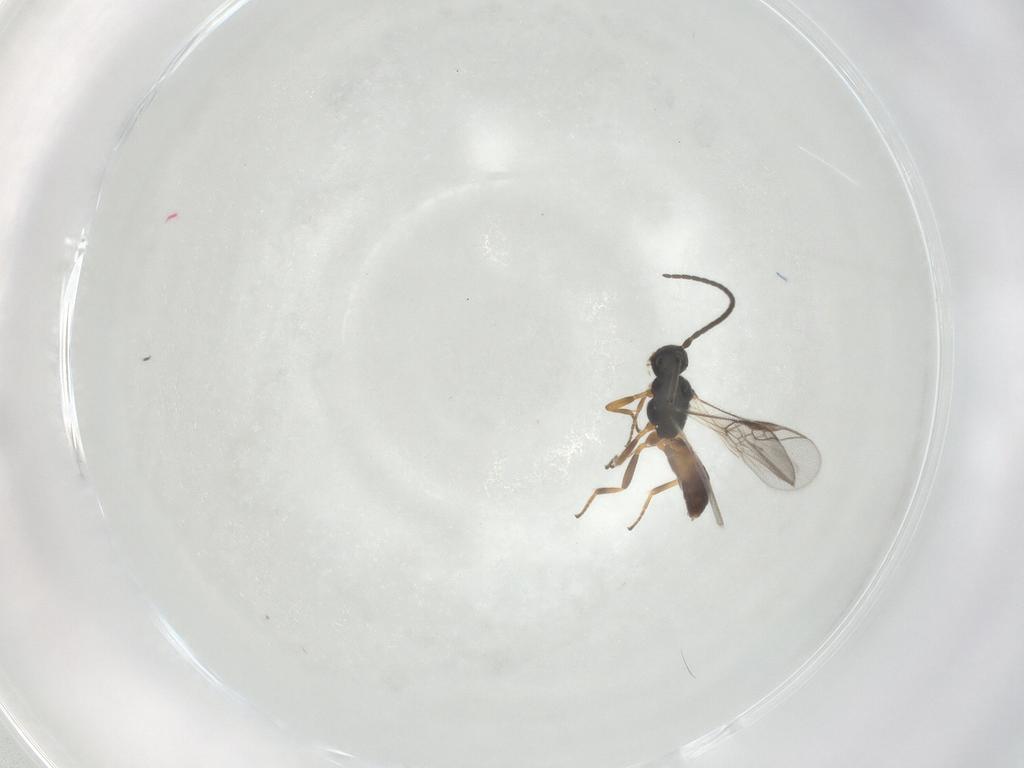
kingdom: Animalia
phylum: Arthropoda
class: Insecta
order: Hymenoptera
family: Braconidae
